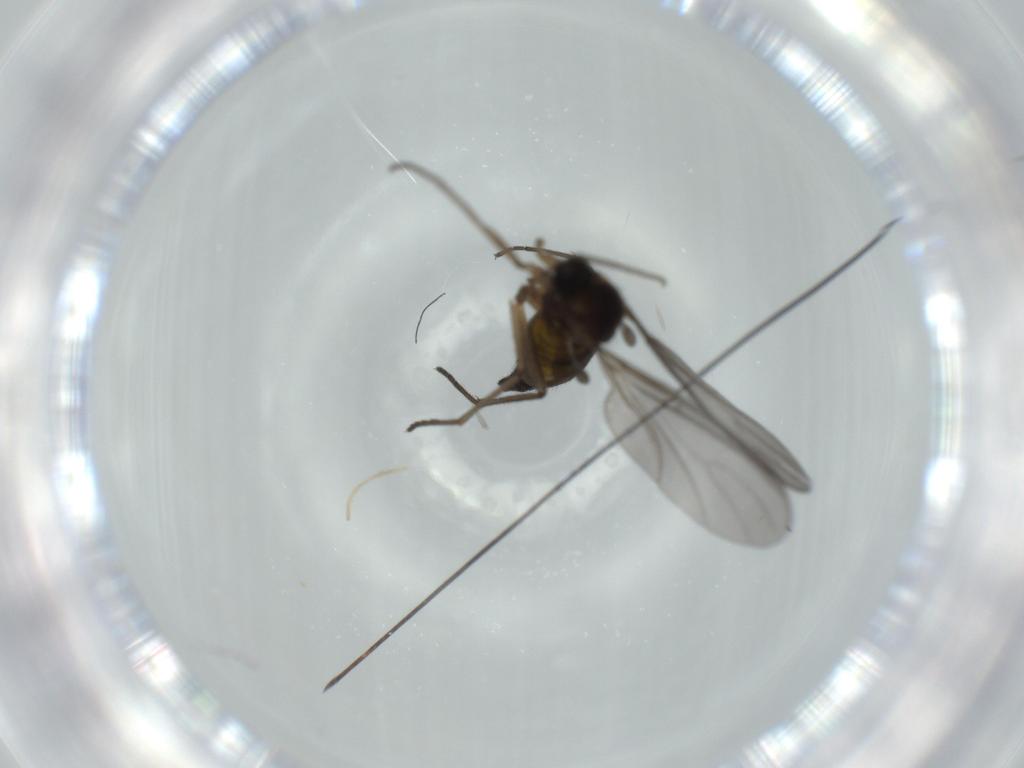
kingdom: Animalia
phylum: Arthropoda
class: Insecta
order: Diptera
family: Sciaridae
